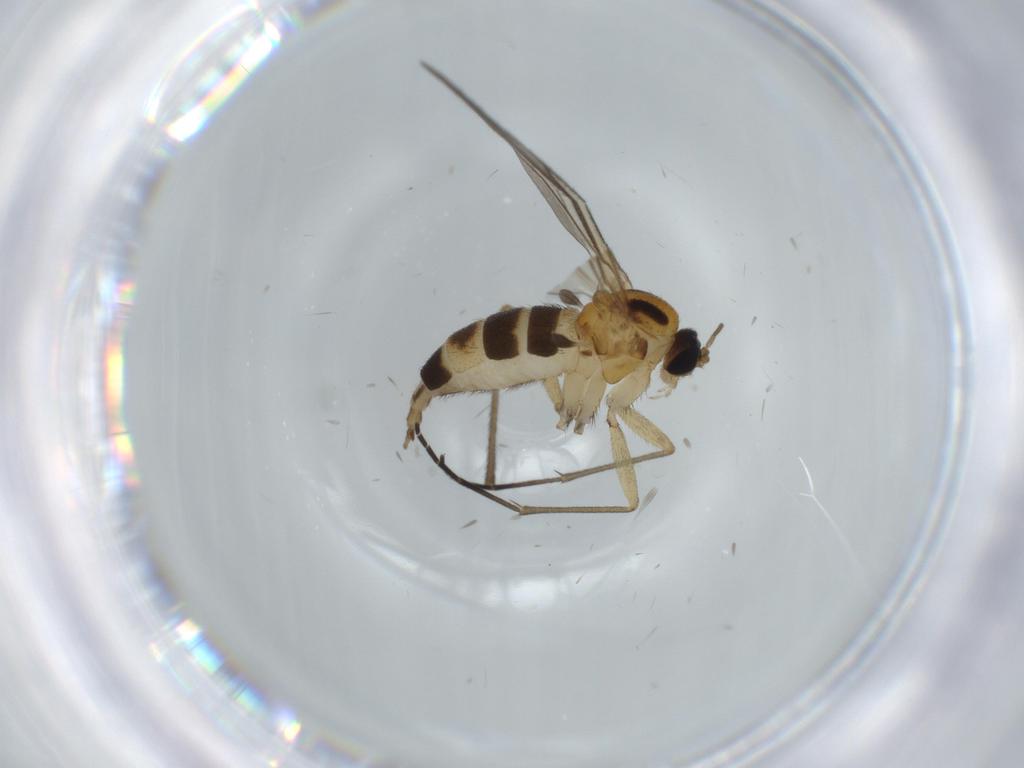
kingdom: Animalia
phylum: Arthropoda
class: Insecta
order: Diptera
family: Sciaridae
